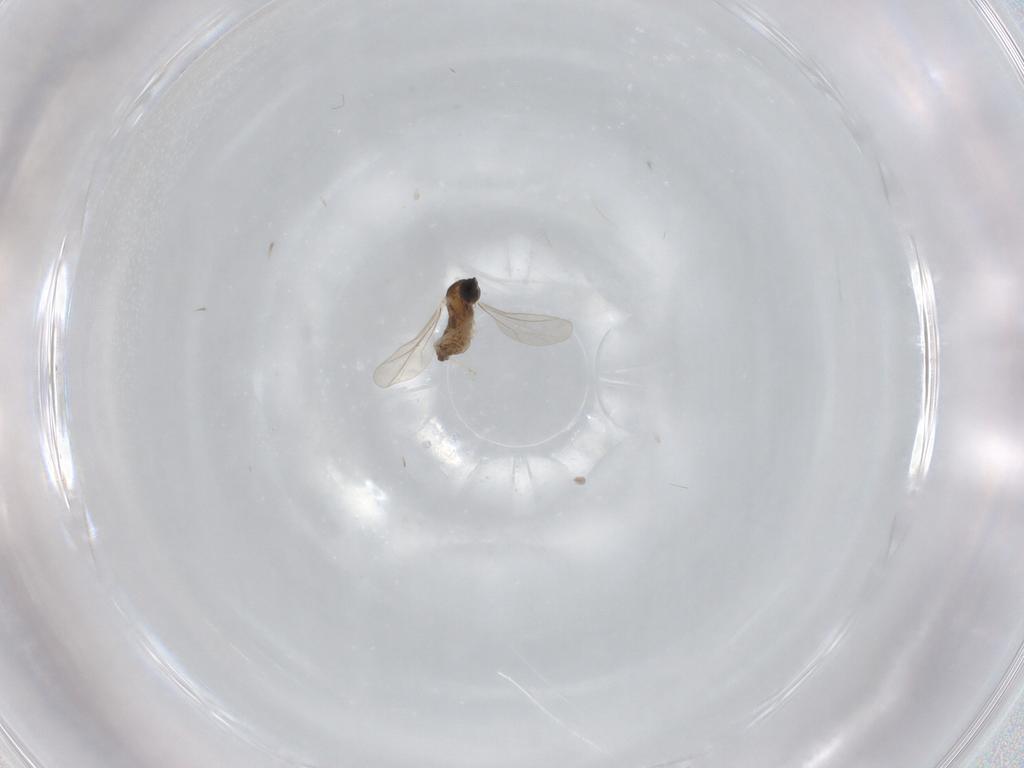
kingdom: Animalia
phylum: Arthropoda
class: Insecta
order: Diptera
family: Cecidomyiidae
